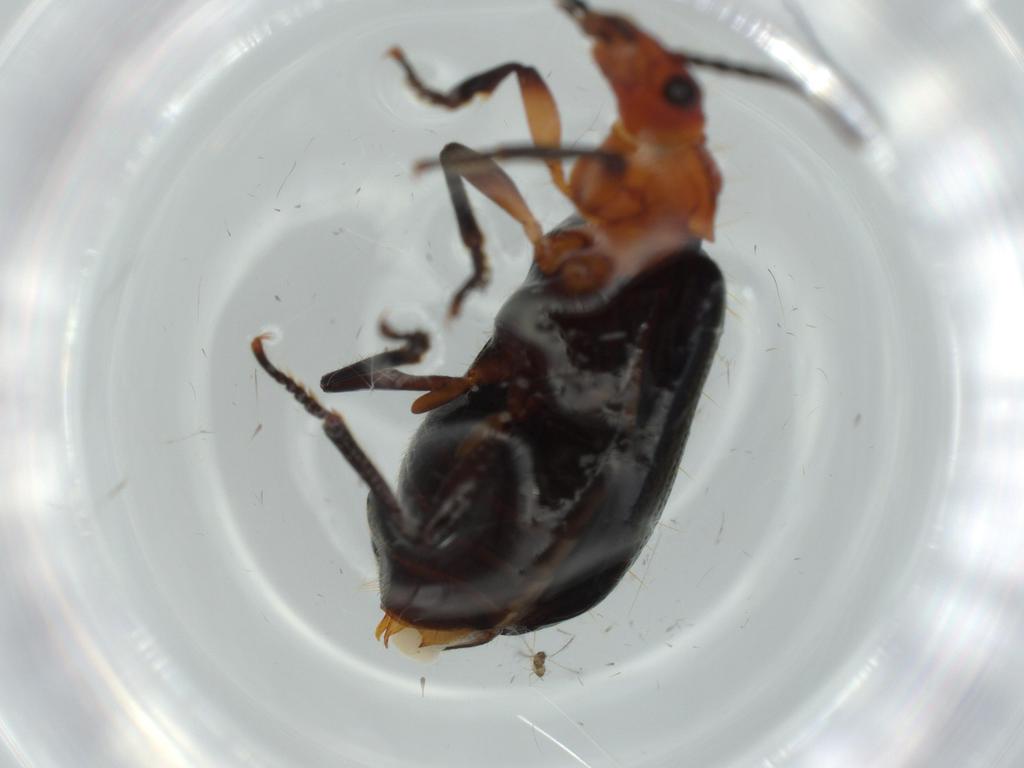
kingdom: Animalia
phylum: Arthropoda
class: Insecta
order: Coleoptera
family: Carabidae
